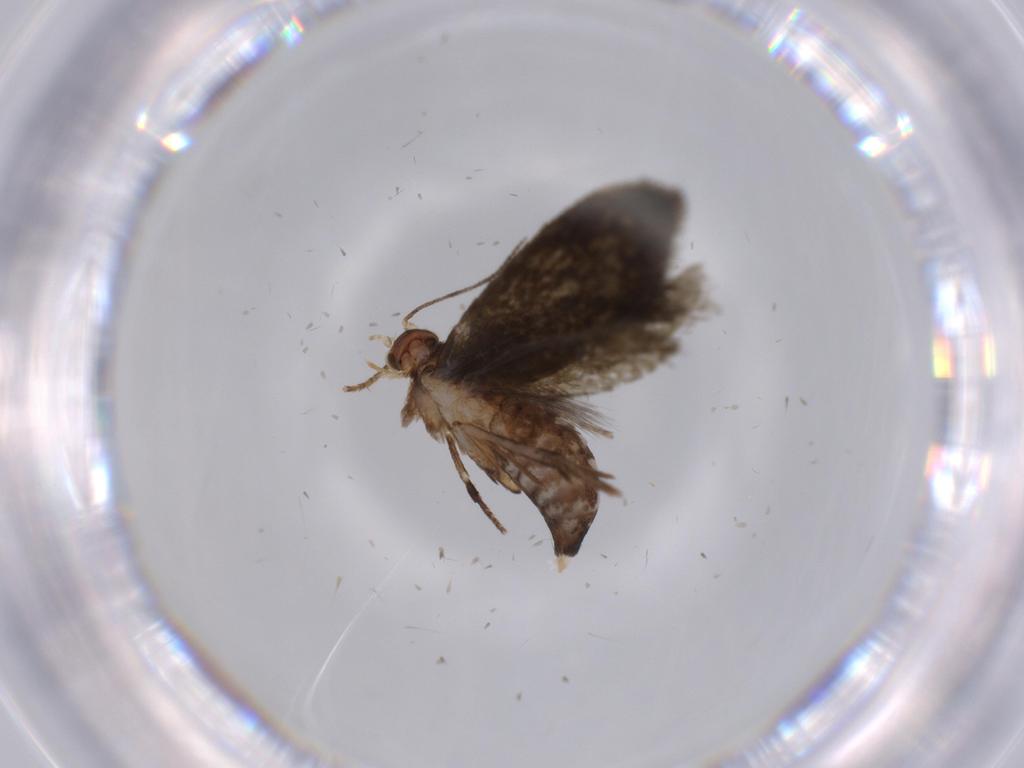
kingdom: Animalia
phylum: Arthropoda
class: Insecta
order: Lepidoptera
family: Tineidae
